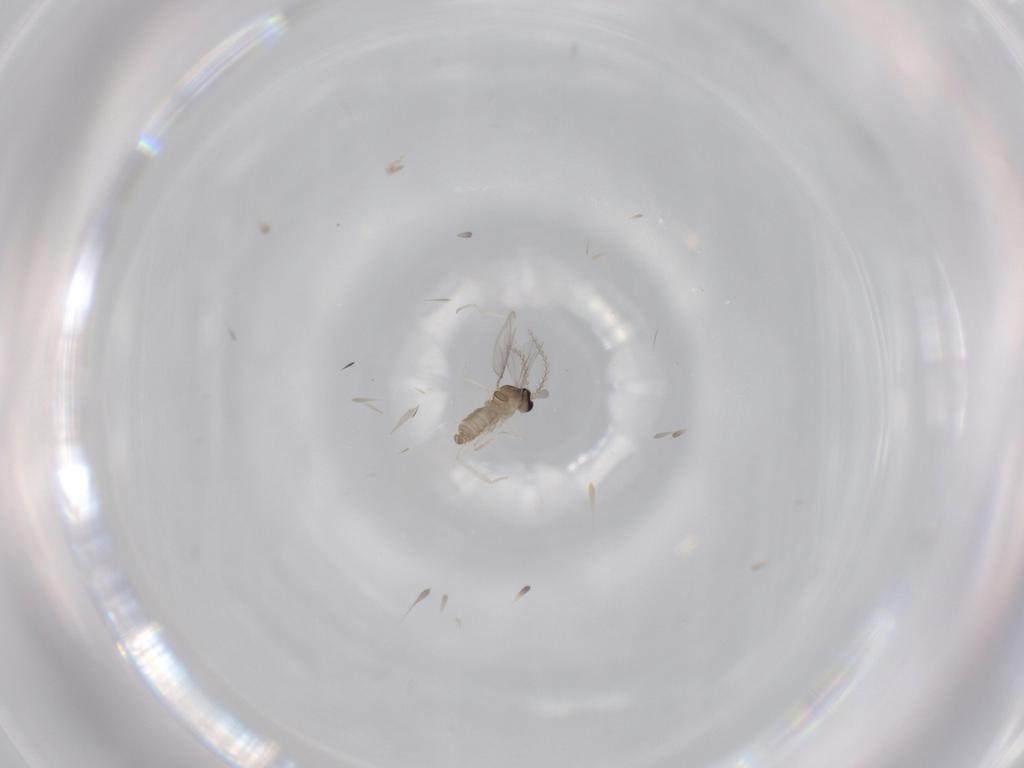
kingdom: Animalia
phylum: Arthropoda
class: Insecta
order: Diptera
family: Cecidomyiidae
